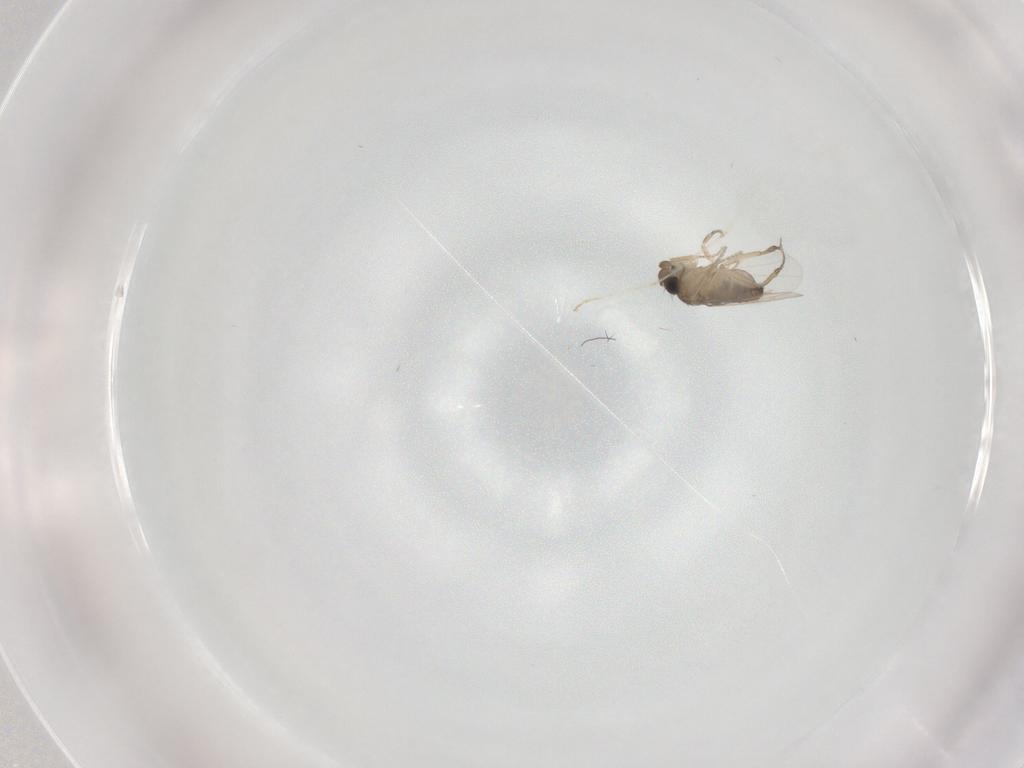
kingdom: Animalia
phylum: Arthropoda
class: Insecta
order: Diptera
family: Phoridae
